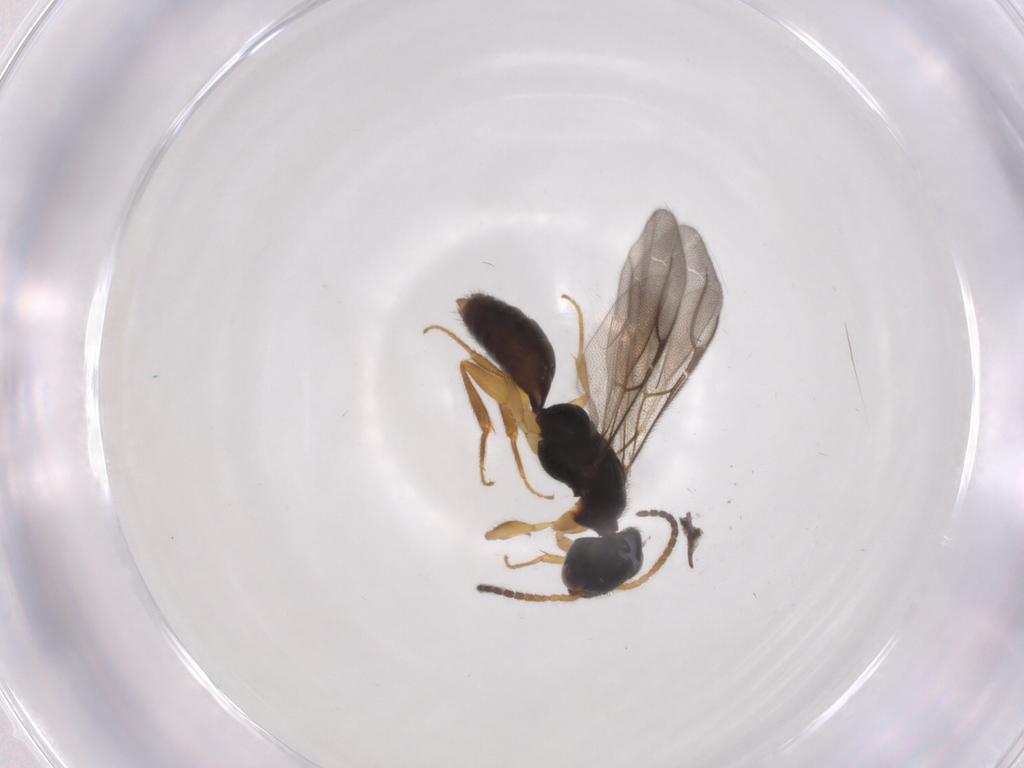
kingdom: Animalia
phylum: Arthropoda
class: Insecta
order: Hymenoptera
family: Bethylidae
